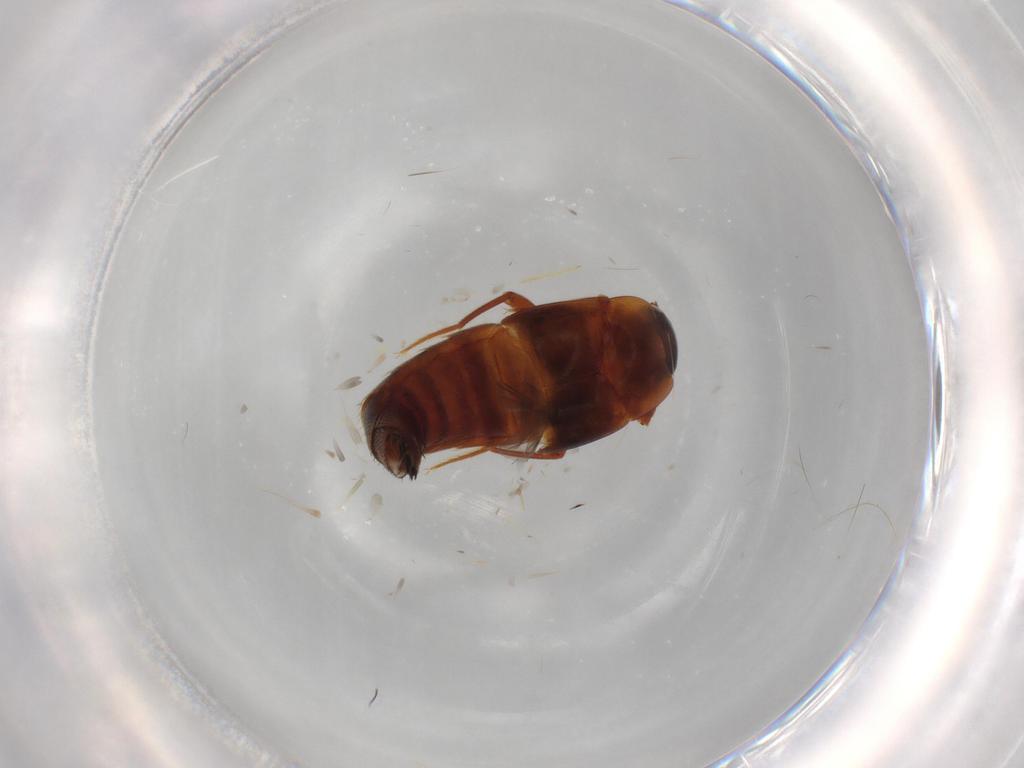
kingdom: Animalia
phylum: Arthropoda
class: Insecta
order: Coleoptera
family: Staphylinidae
